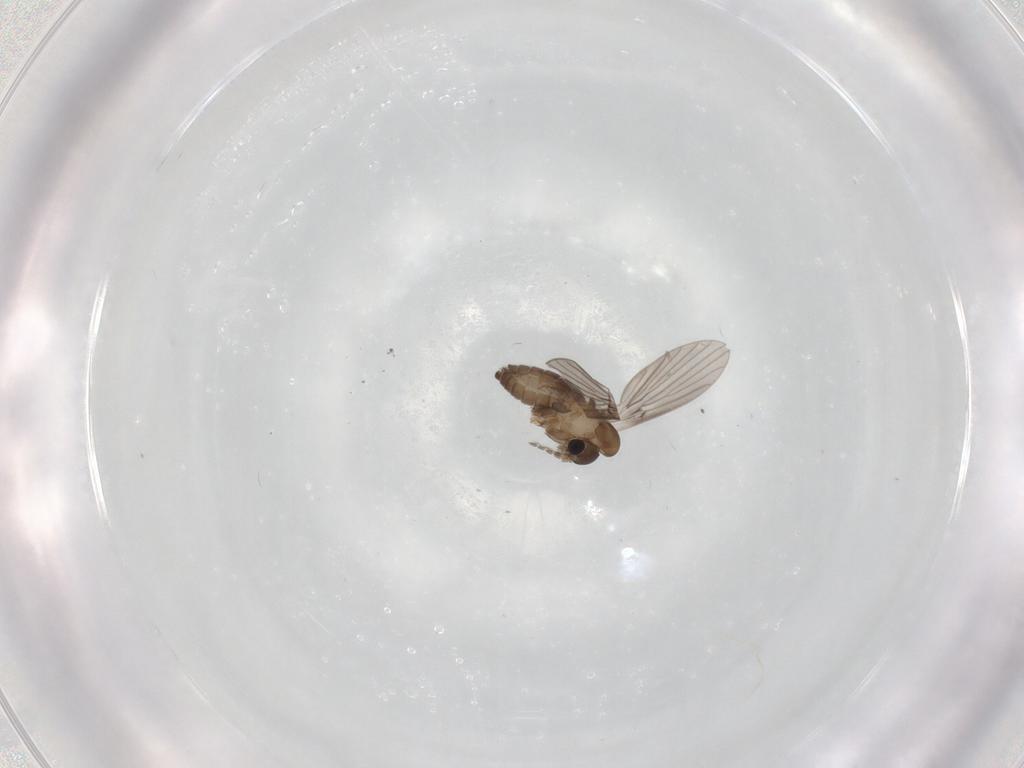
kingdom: Animalia
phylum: Arthropoda
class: Insecta
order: Diptera
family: Psychodidae
